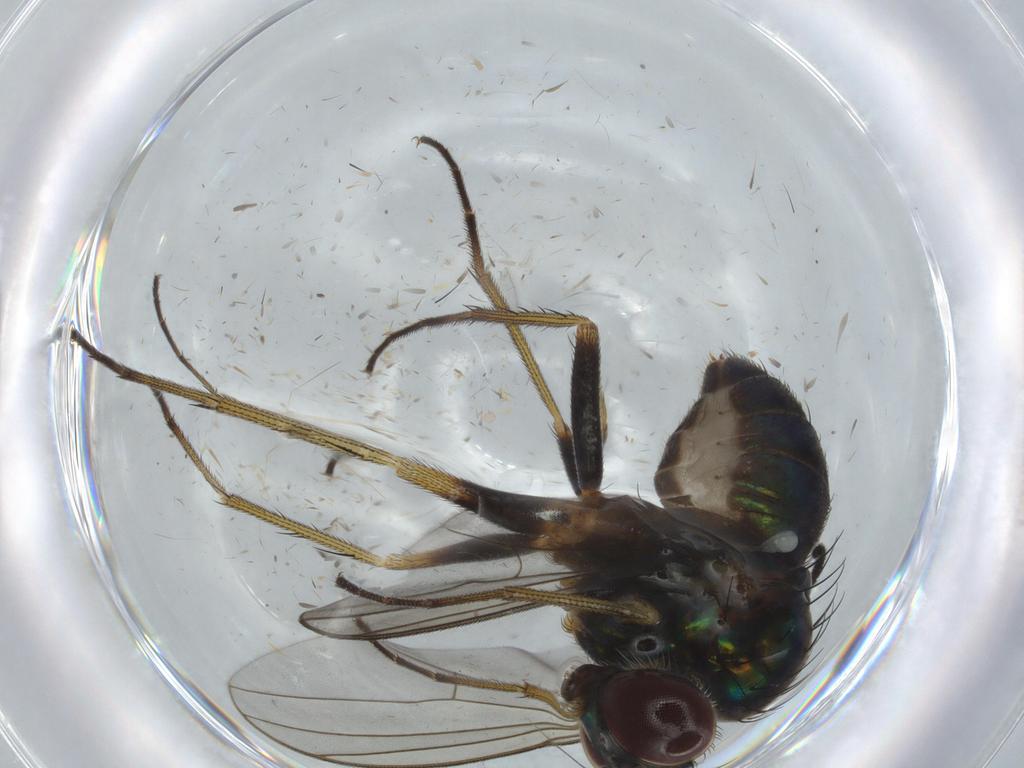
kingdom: Animalia
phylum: Arthropoda
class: Insecta
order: Diptera
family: Dolichopodidae
